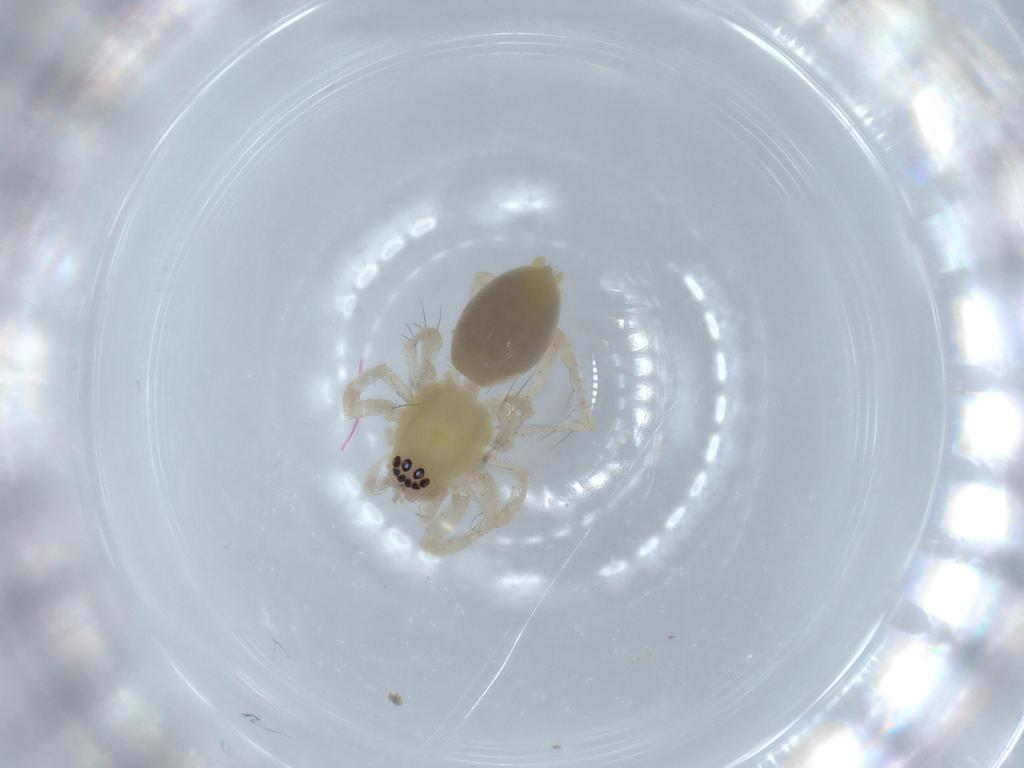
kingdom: Animalia
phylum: Arthropoda
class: Arachnida
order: Araneae
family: Anyphaenidae
